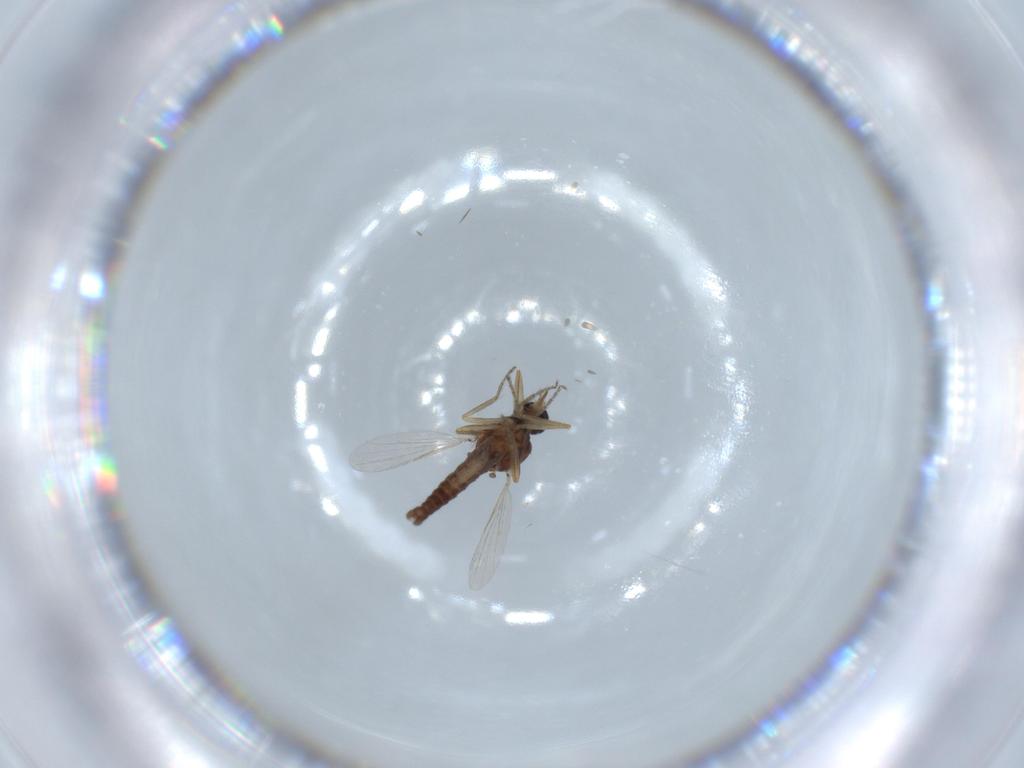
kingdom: Animalia
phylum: Arthropoda
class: Insecta
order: Diptera
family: Ceratopogonidae
